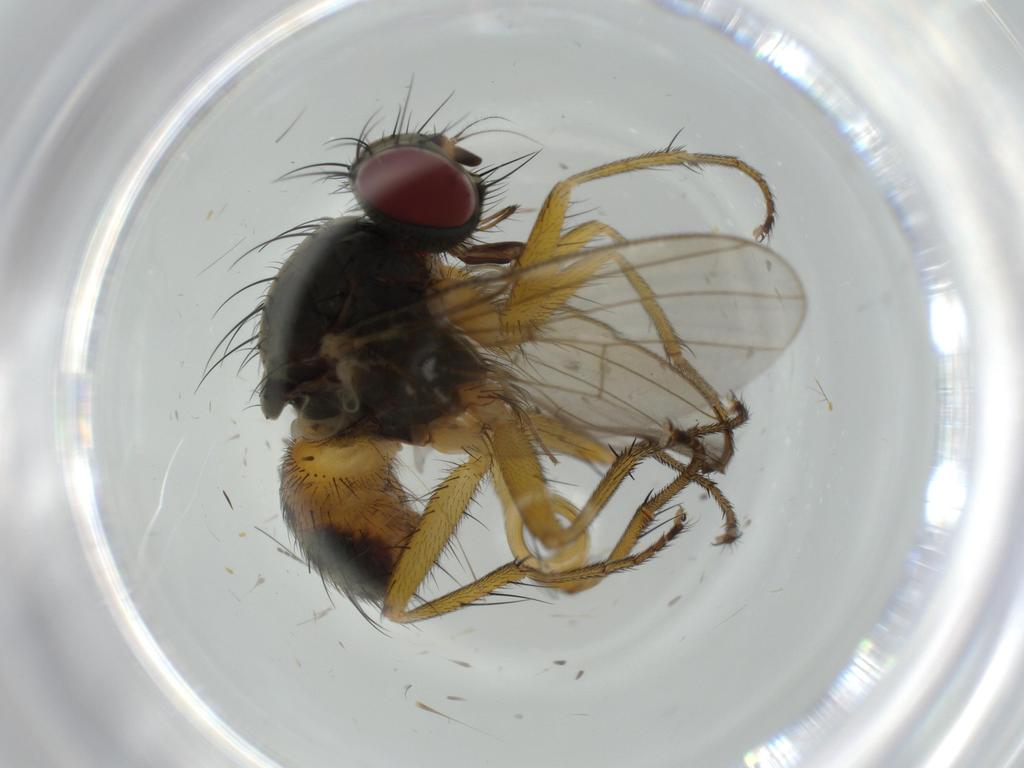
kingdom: Animalia
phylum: Arthropoda
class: Insecta
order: Diptera
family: Muscidae
